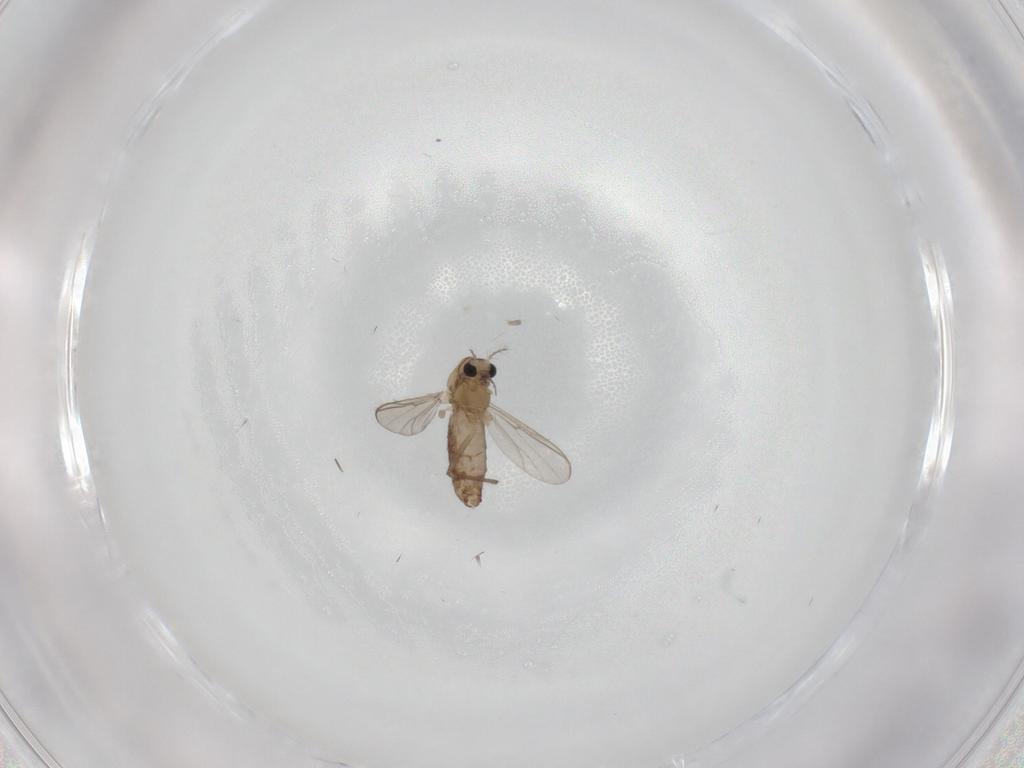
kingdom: Animalia
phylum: Arthropoda
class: Insecta
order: Diptera
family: Chironomidae
